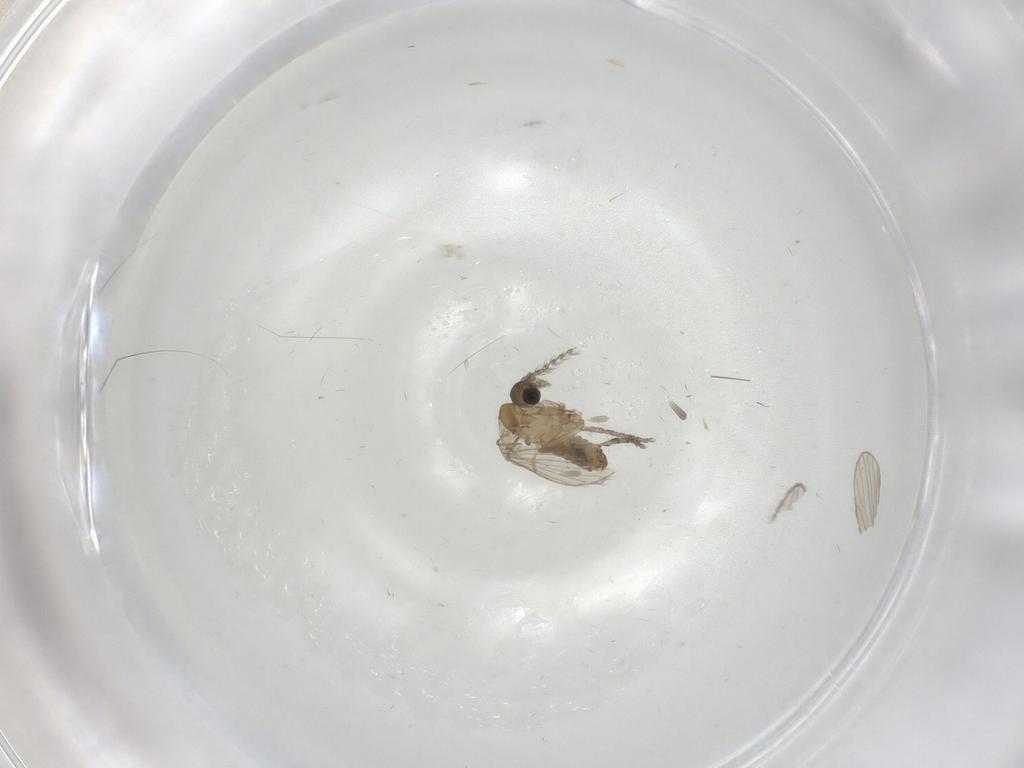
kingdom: Animalia
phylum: Arthropoda
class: Insecta
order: Diptera
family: Psychodidae
